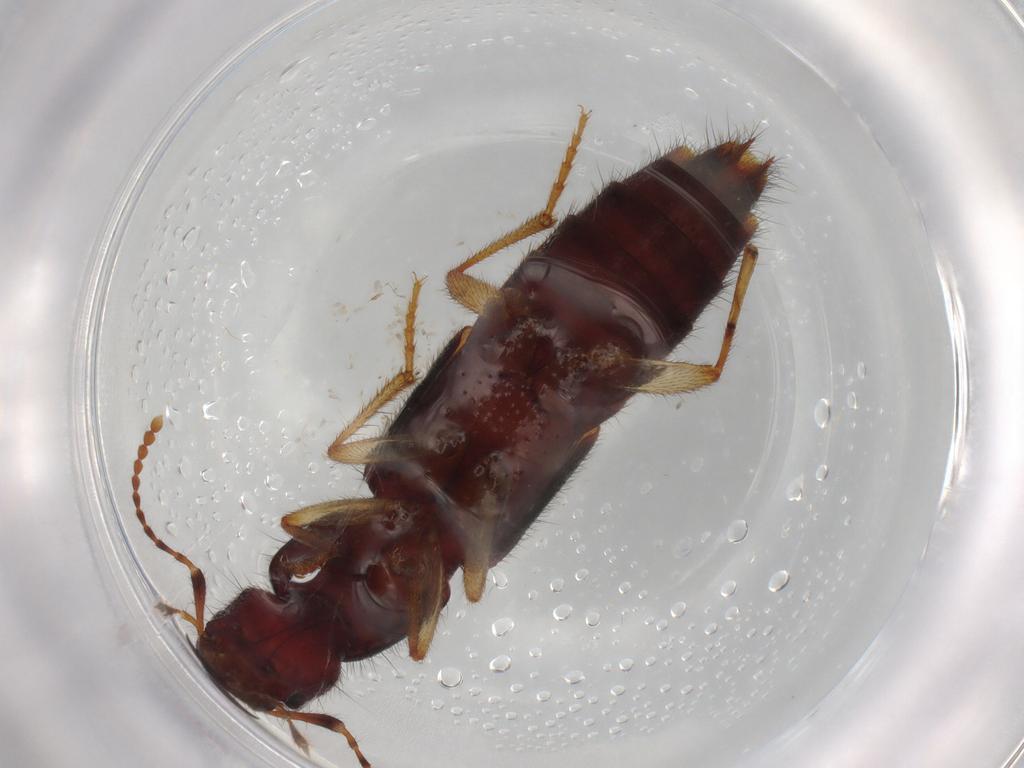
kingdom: Animalia
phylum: Arthropoda
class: Insecta
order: Coleoptera
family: Staphylinidae
